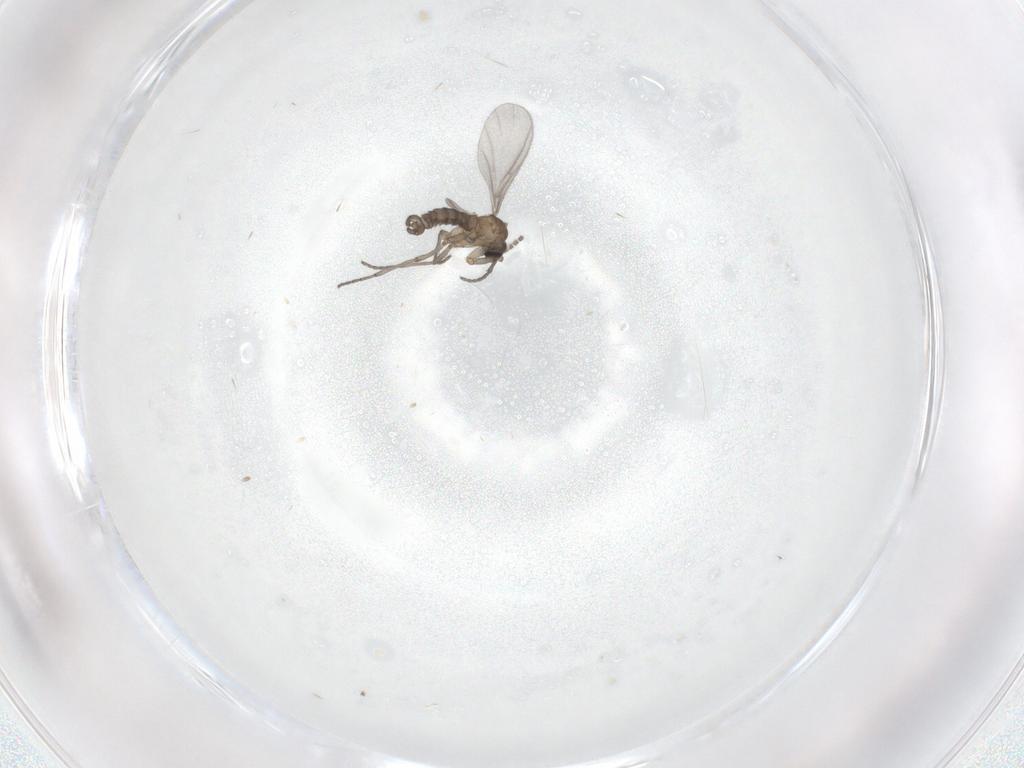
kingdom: Animalia
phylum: Arthropoda
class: Insecta
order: Diptera
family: Sciaridae
